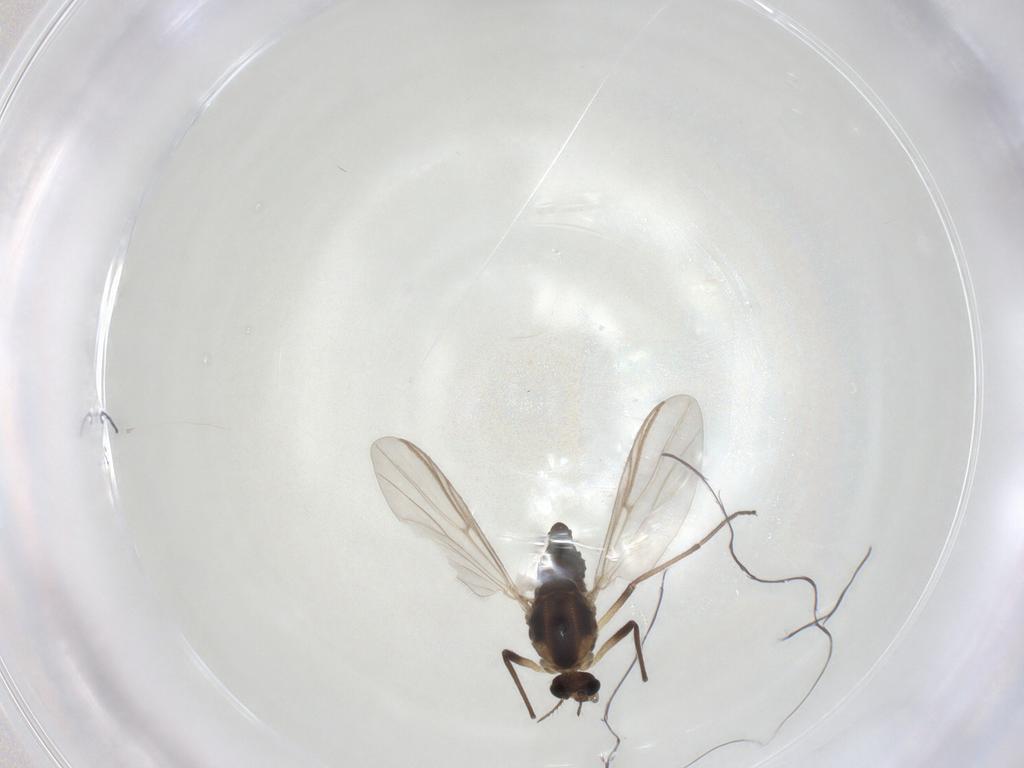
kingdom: Animalia
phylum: Arthropoda
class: Insecta
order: Diptera
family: Chironomidae
